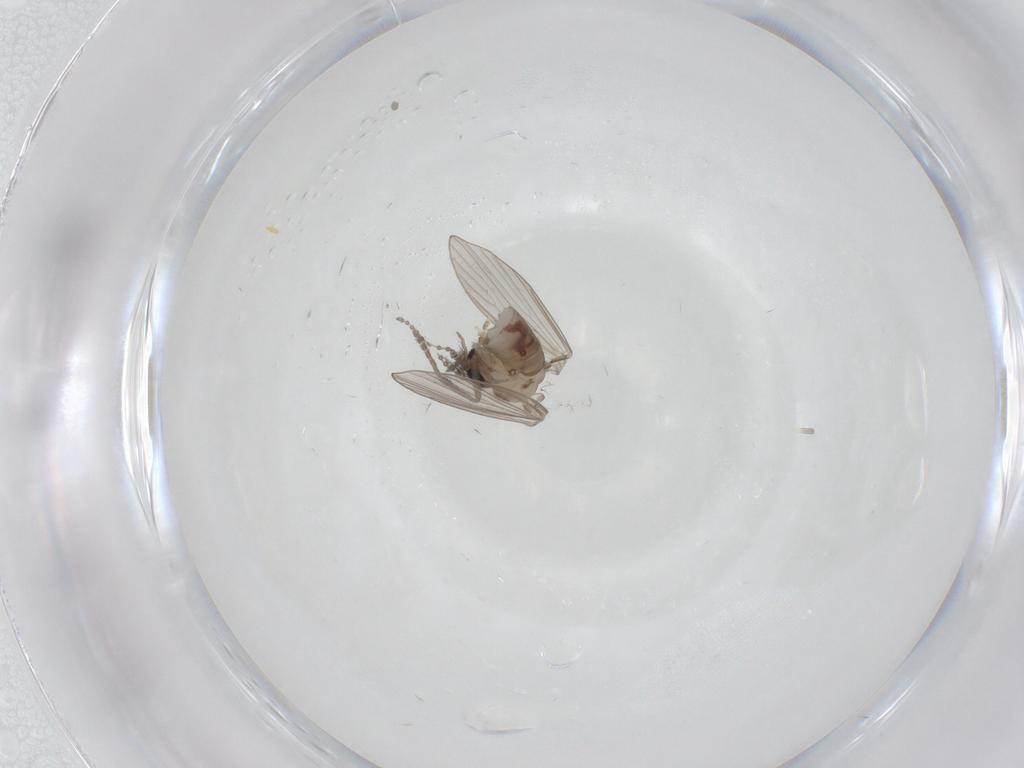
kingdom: Animalia
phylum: Arthropoda
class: Insecta
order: Diptera
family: Psychodidae
